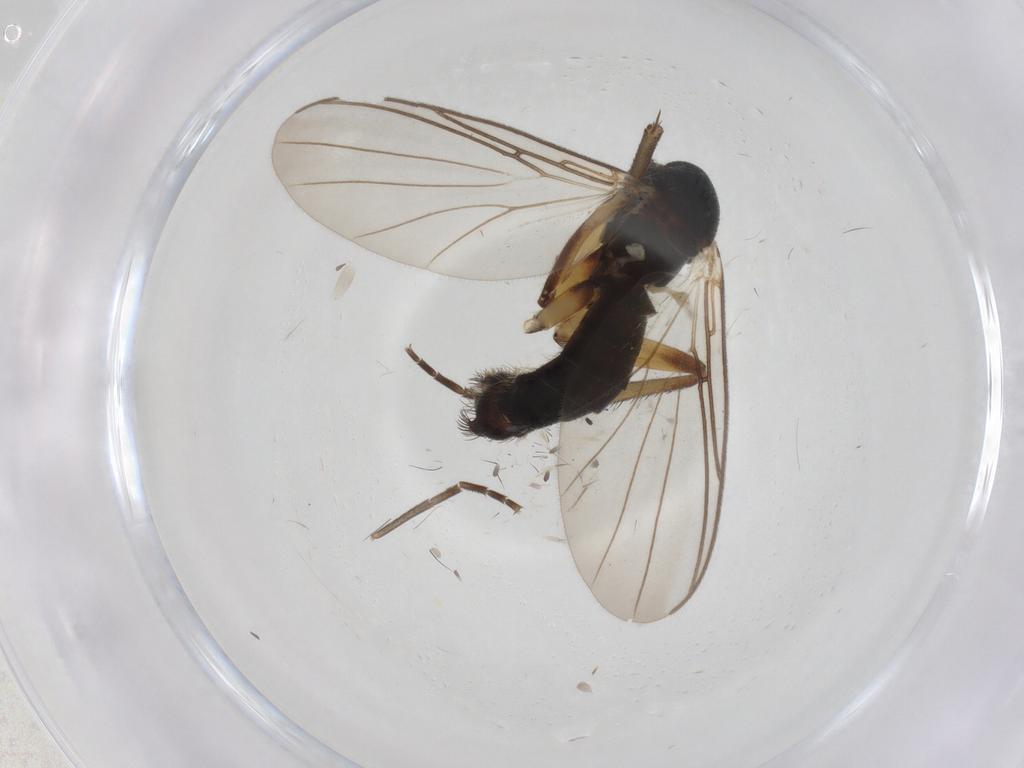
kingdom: Animalia
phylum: Arthropoda
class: Insecta
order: Diptera
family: Mycetophilidae
